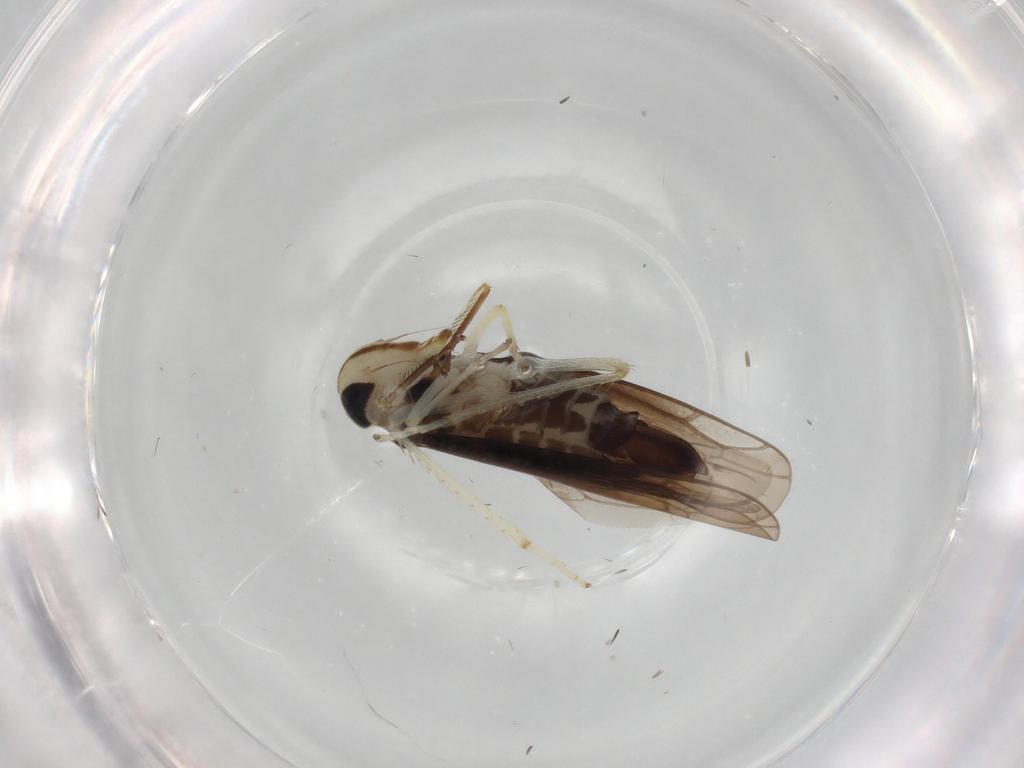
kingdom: Animalia
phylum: Arthropoda
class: Insecta
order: Hemiptera
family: Cicadellidae
